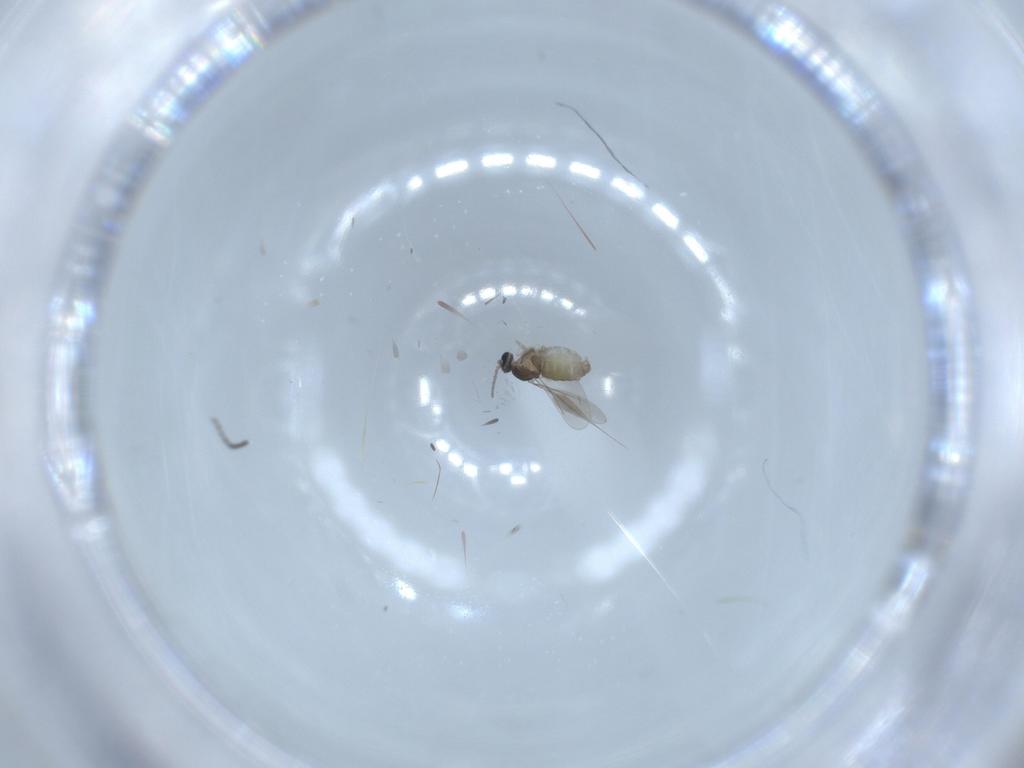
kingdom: Animalia
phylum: Arthropoda
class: Insecta
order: Diptera
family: Cecidomyiidae
